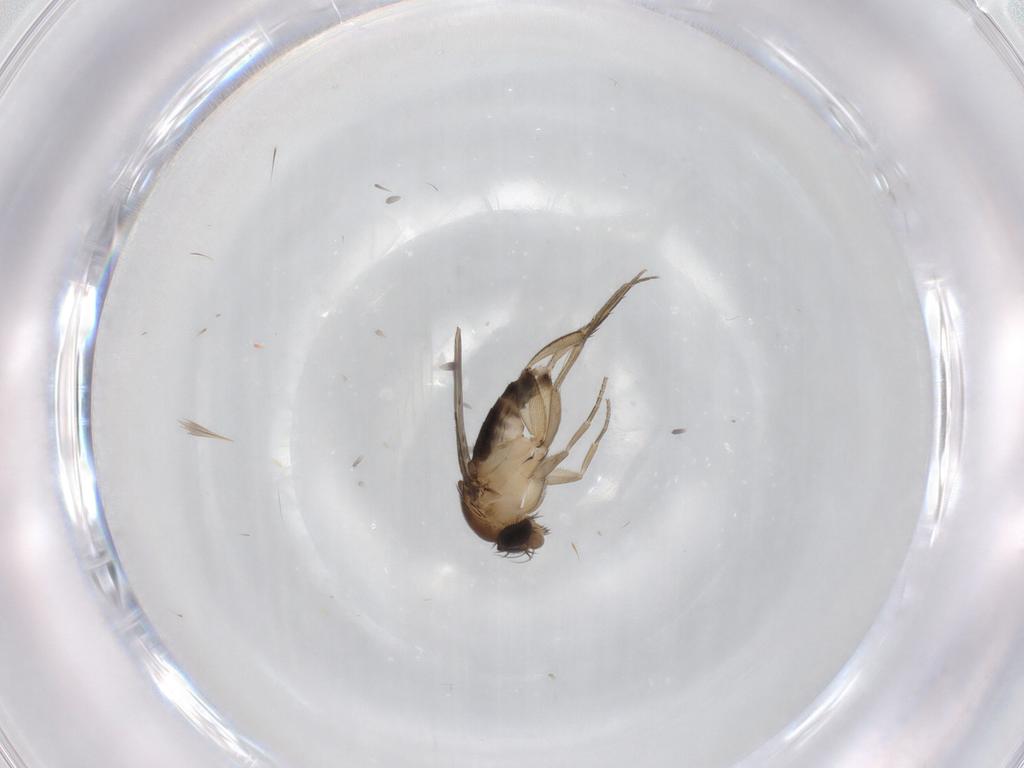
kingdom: Animalia
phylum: Arthropoda
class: Insecta
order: Diptera
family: Phoridae
